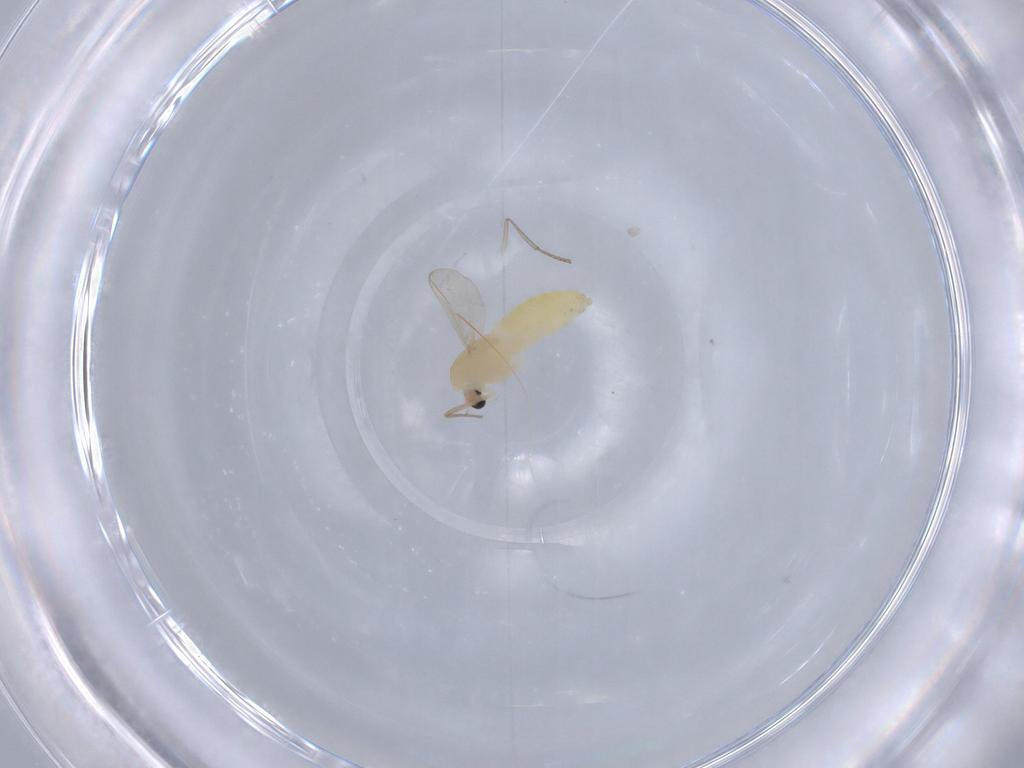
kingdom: Animalia
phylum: Arthropoda
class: Insecta
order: Diptera
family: Chironomidae
